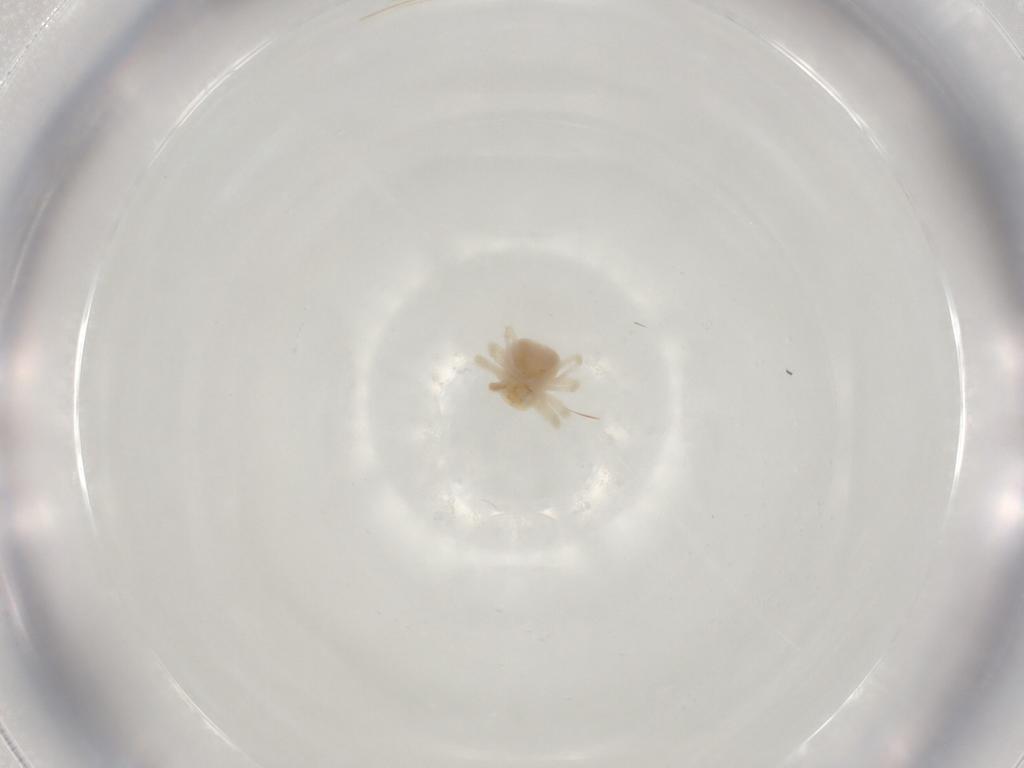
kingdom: Animalia
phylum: Arthropoda
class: Arachnida
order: Trombidiformes
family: Anystidae
